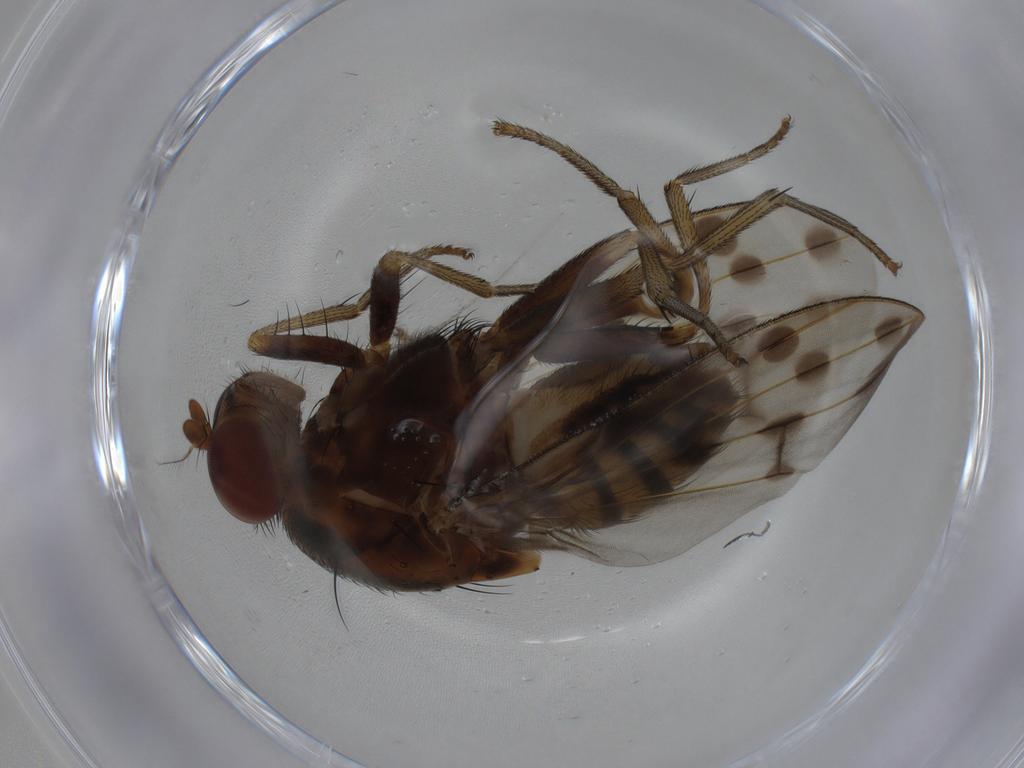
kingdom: Animalia
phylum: Arthropoda
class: Insecta
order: Diptera
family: Lauxaniidae
